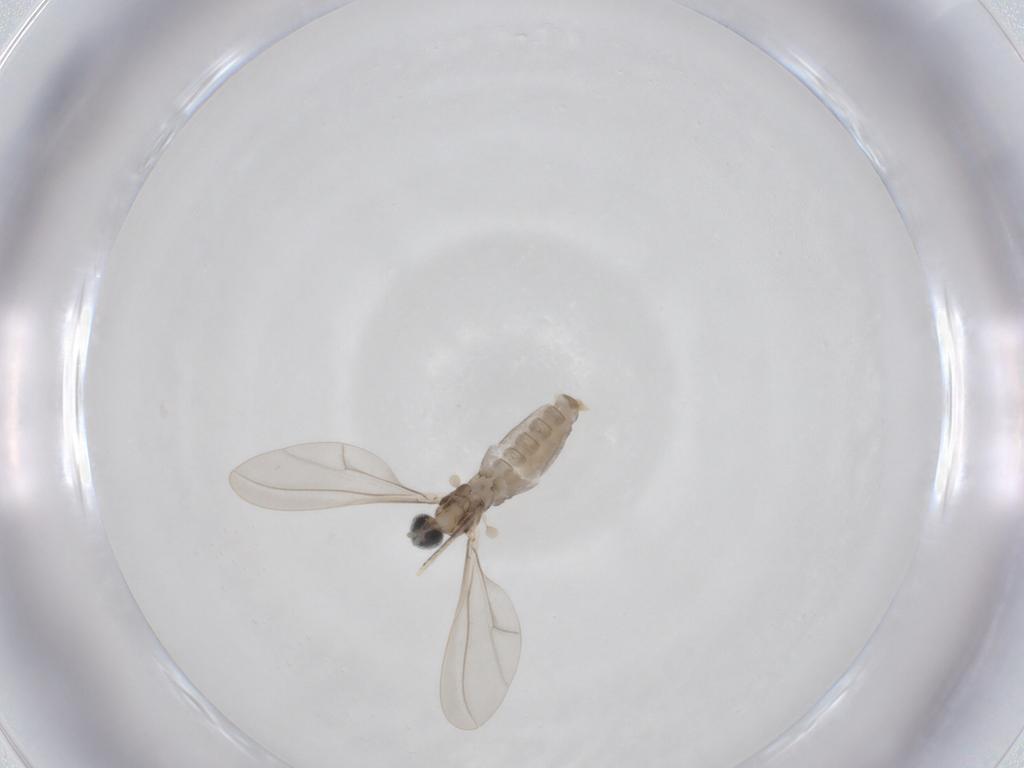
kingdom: Animalia
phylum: Arthropoda
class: Insecta
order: Diptera
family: Cecidomyiidae
